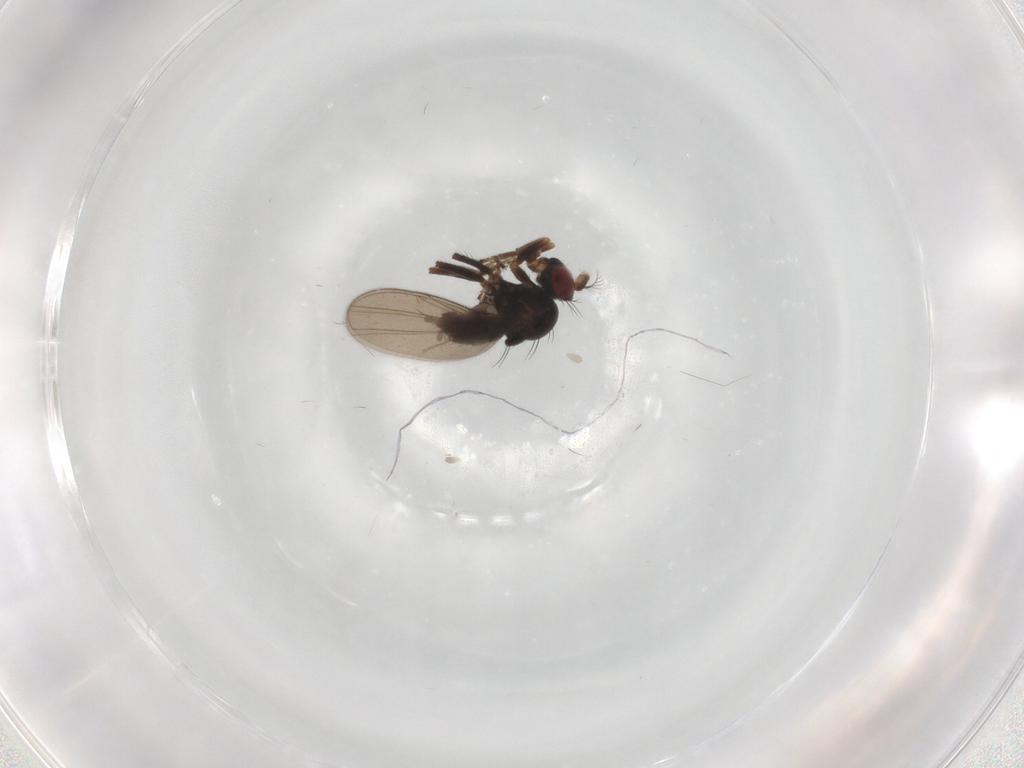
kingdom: Animalia
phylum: Arthropoda
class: Insecta
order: Diptera
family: Ephydridae
